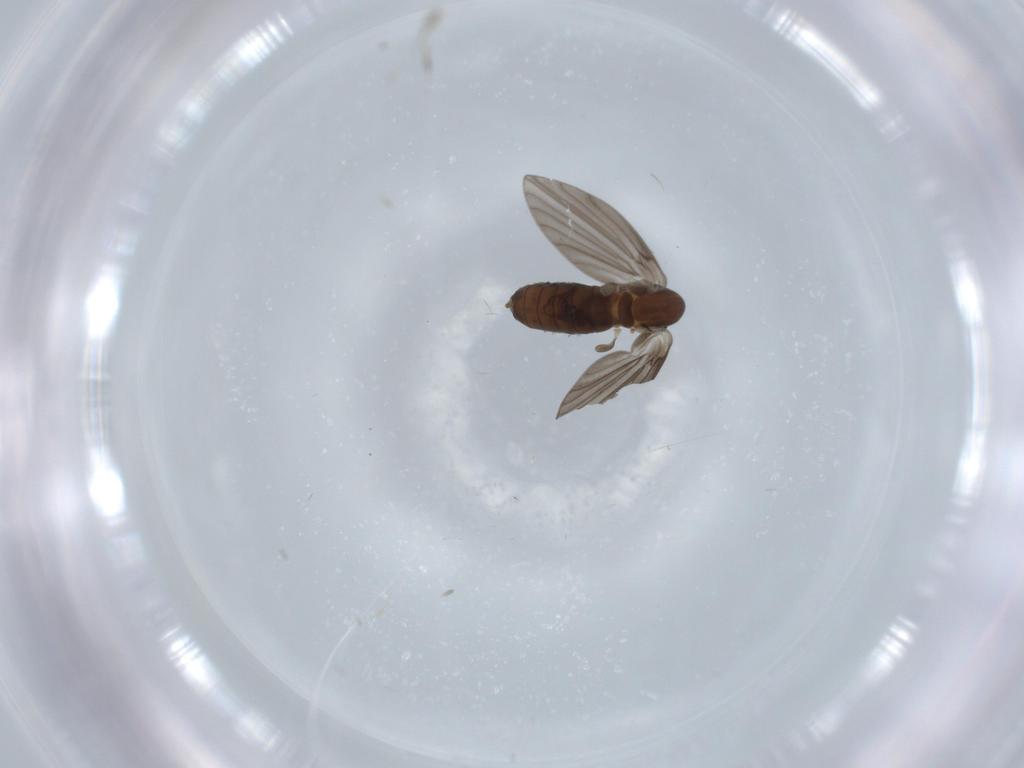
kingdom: Animalia
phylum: Arthropoda
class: Insecta
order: Diptera
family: Psychodidae
